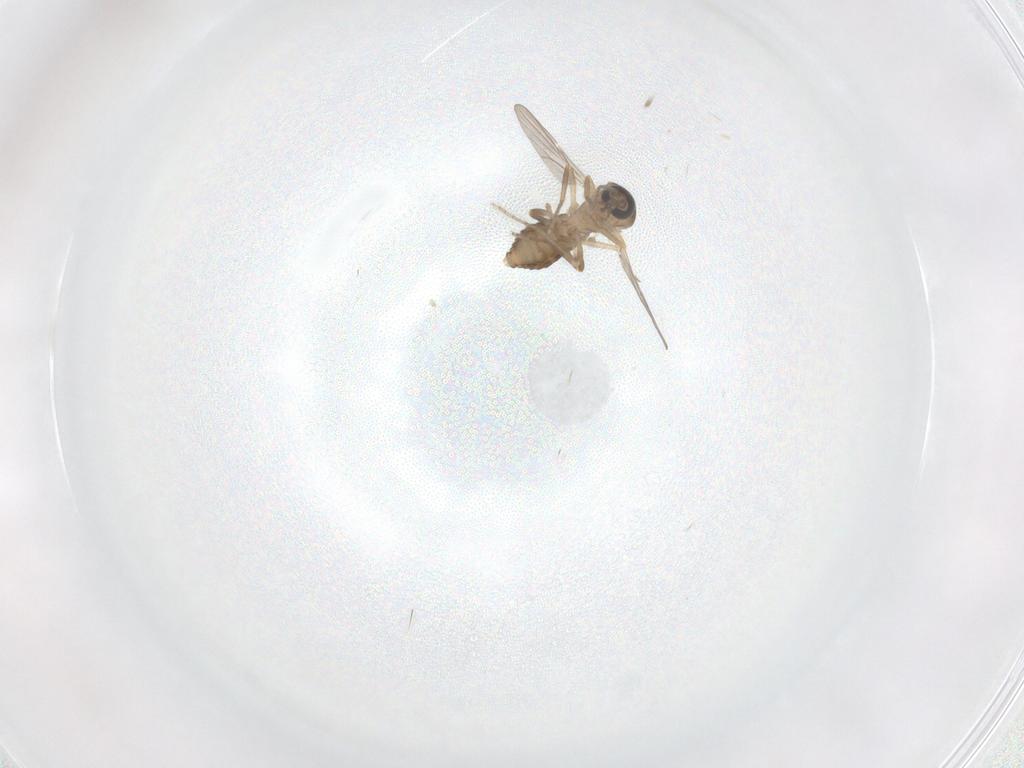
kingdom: Animalia
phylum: Arthropoda
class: Insecta
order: Diptera
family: Ceratopogonidae
